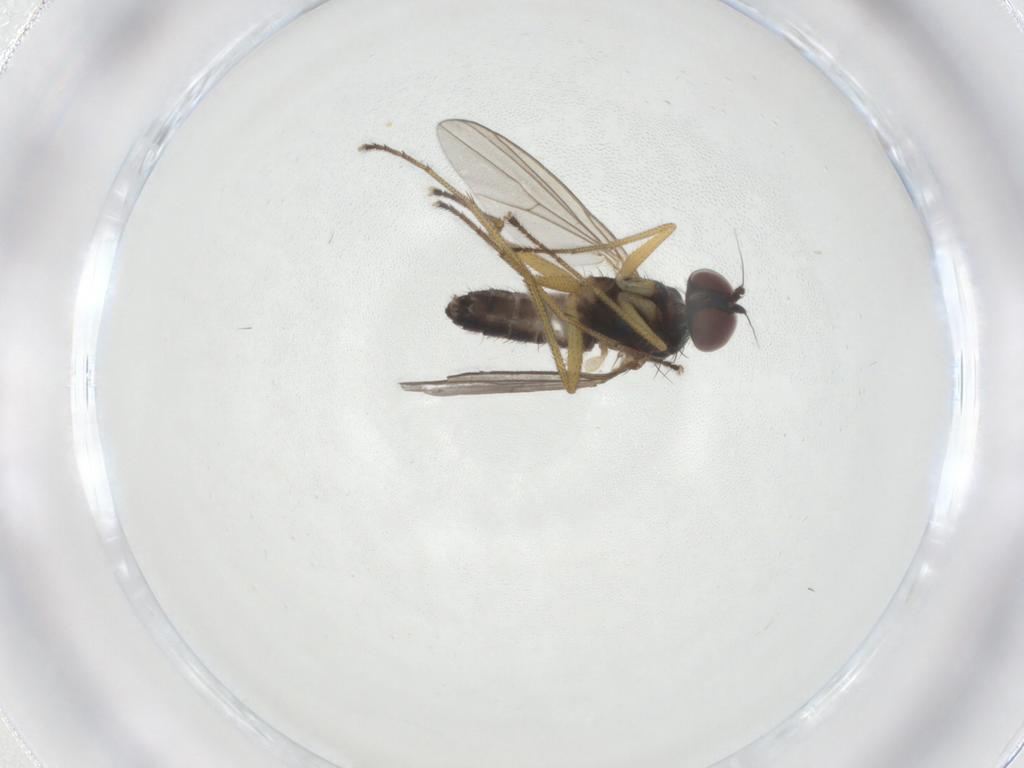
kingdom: Animalia
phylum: Arthropoda
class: Insecta
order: Diptera
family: Dolichopodidae
